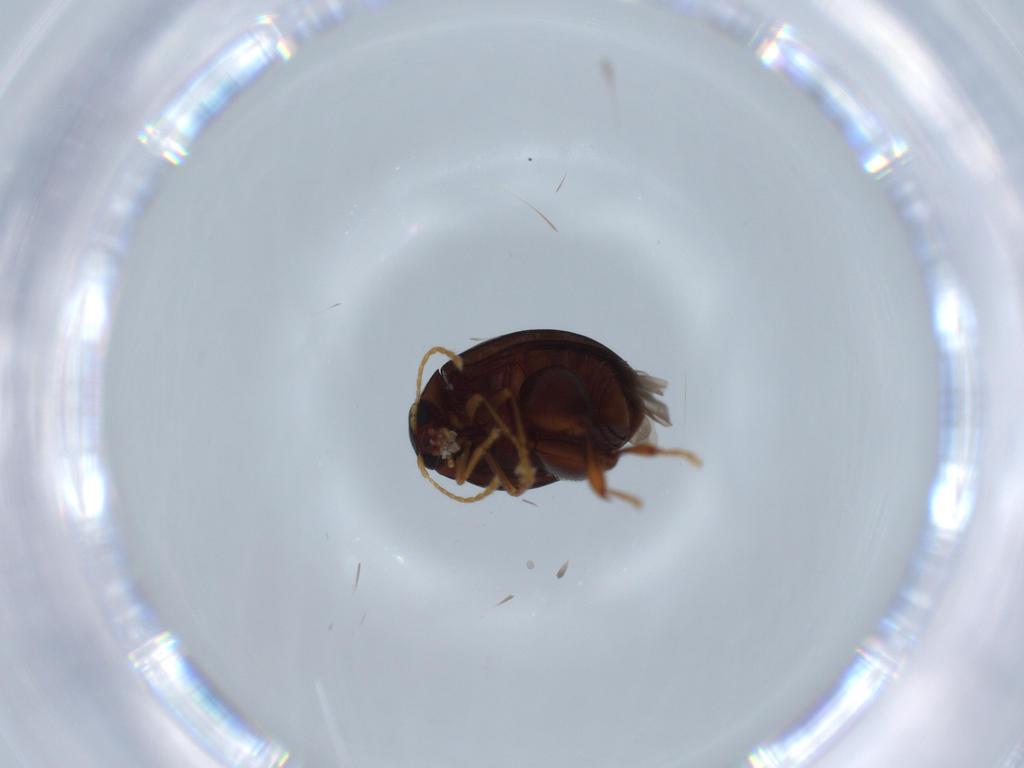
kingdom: Animalia
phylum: Arthropoda
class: Insecta
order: Coleoptera
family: Chrysomelidae
